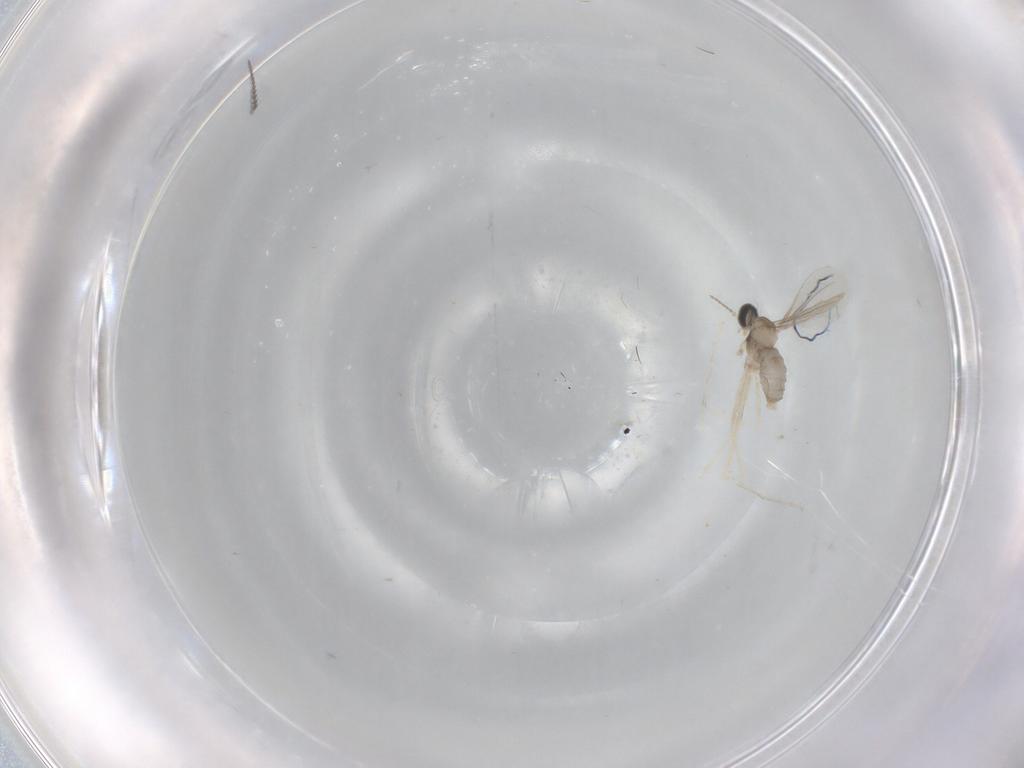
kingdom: Animalia
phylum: Arthropoda
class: Insecta
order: Diptera
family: Cecidomyiidae
